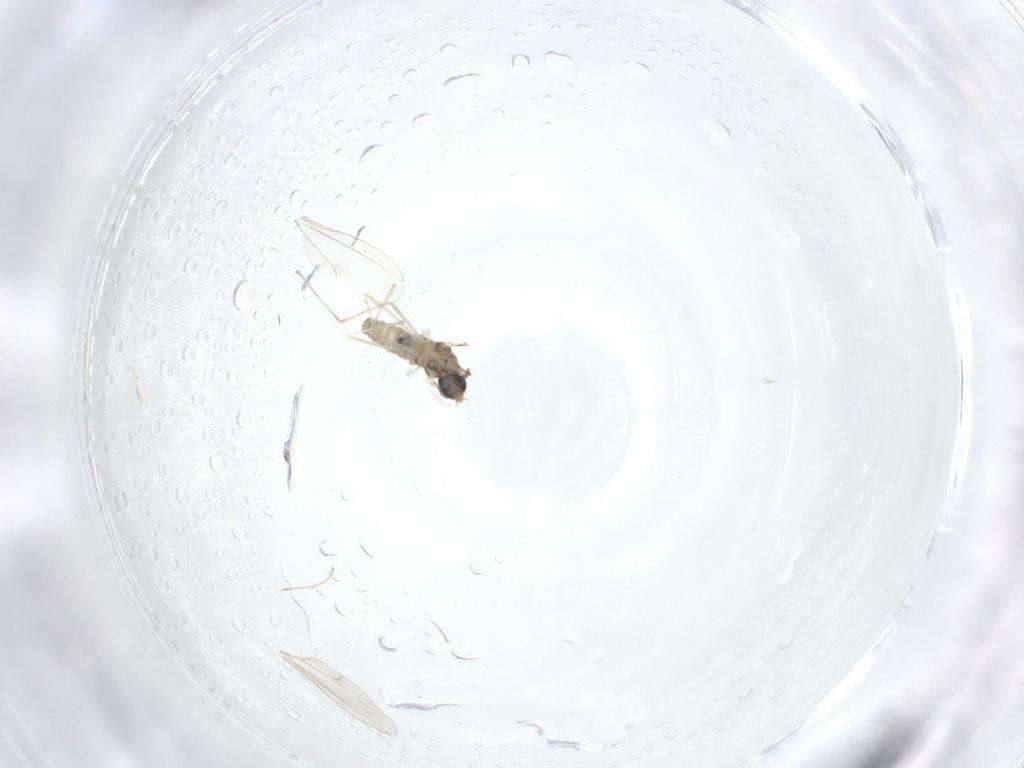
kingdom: Animalia
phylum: Arthropoda
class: Insecta
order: Diptera
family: Cecidomyiidae
